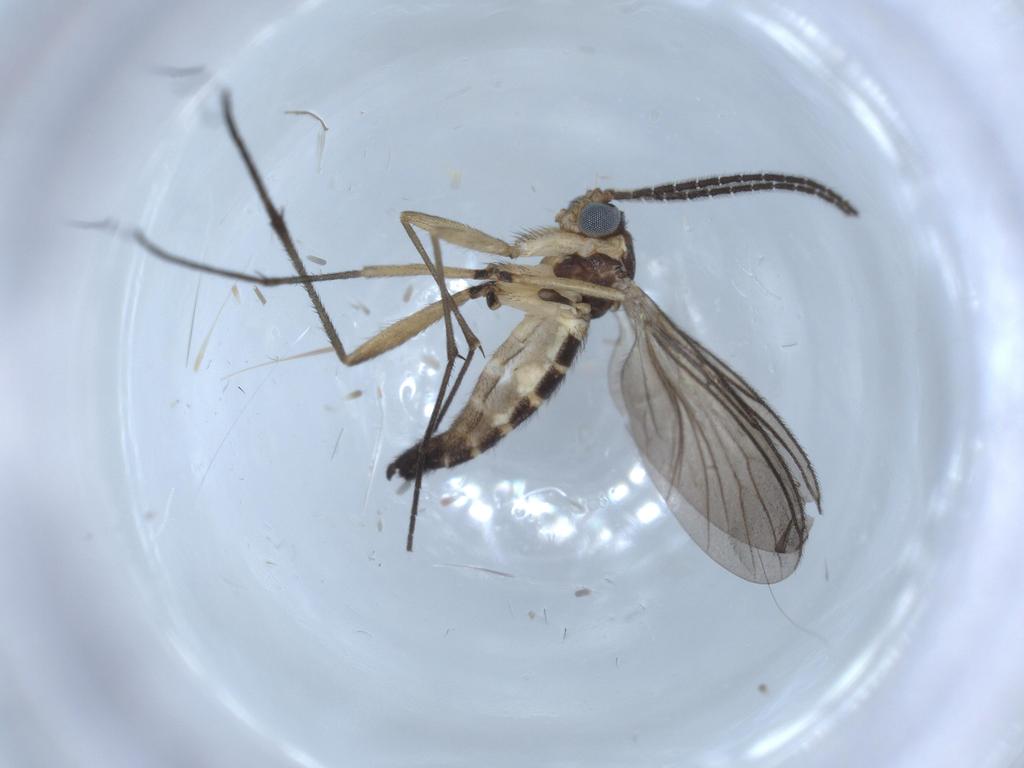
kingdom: Animalia
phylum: Arthropoda
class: Insecta
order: Diptera
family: Sciaridae
